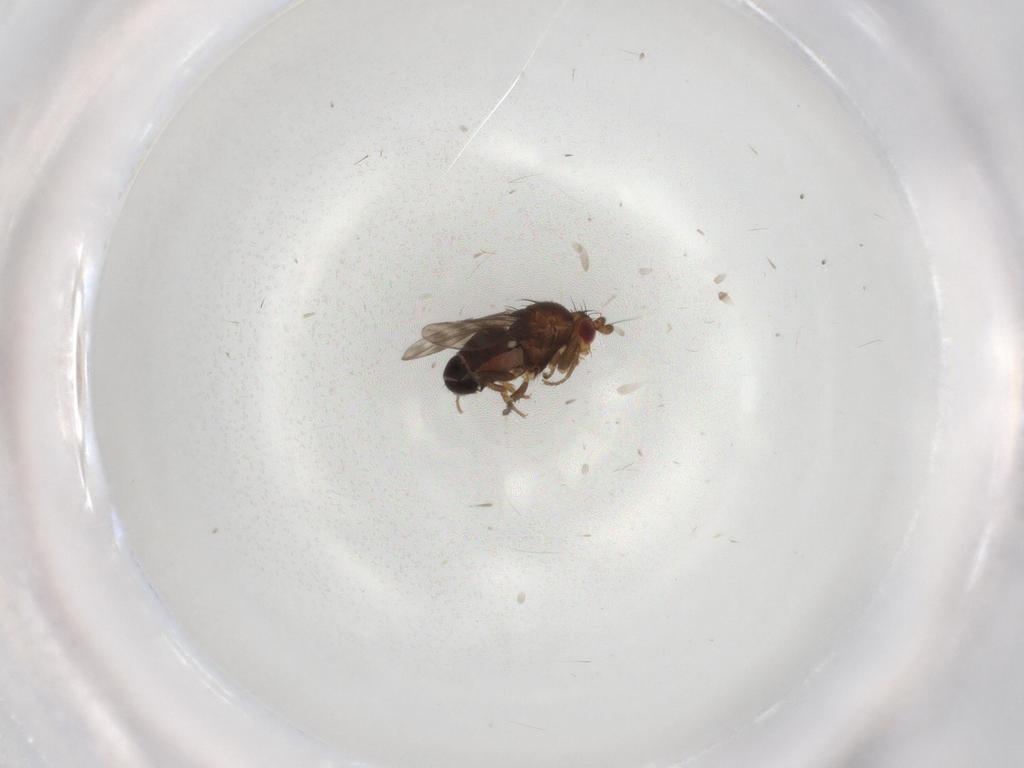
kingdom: Animalia
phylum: Arthropoda
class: Insecta
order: Diptera
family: Sphaeroceridae
